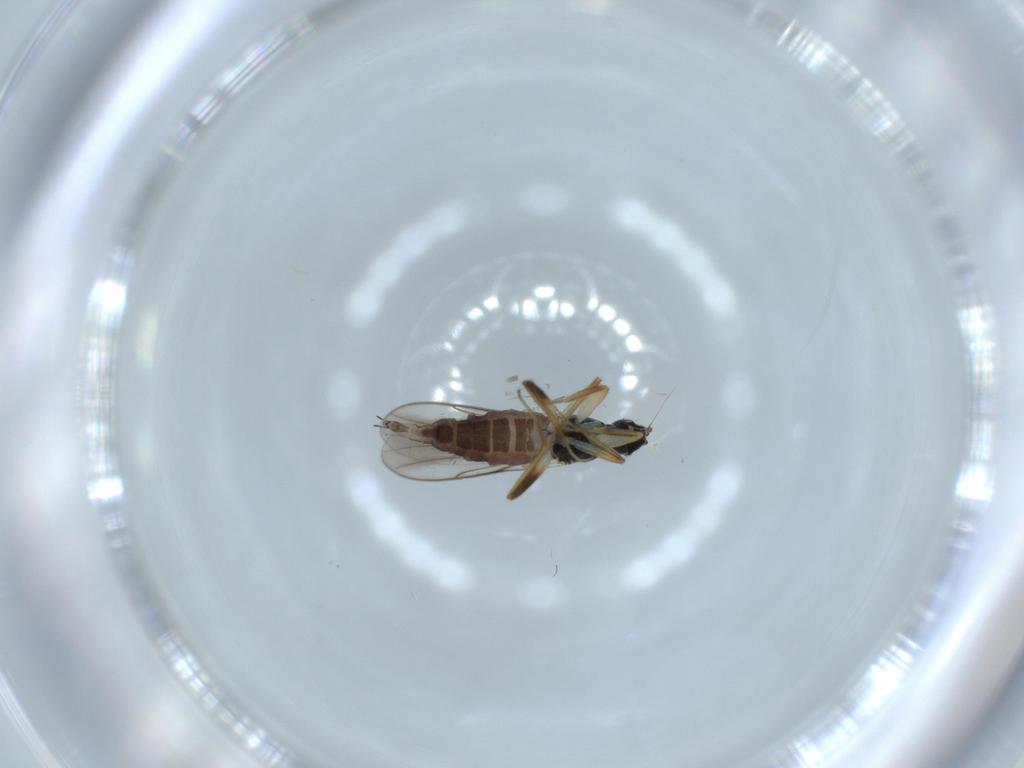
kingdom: Animalia
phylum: Arthropoda
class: Insecta
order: Diptera
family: Hybotidae
